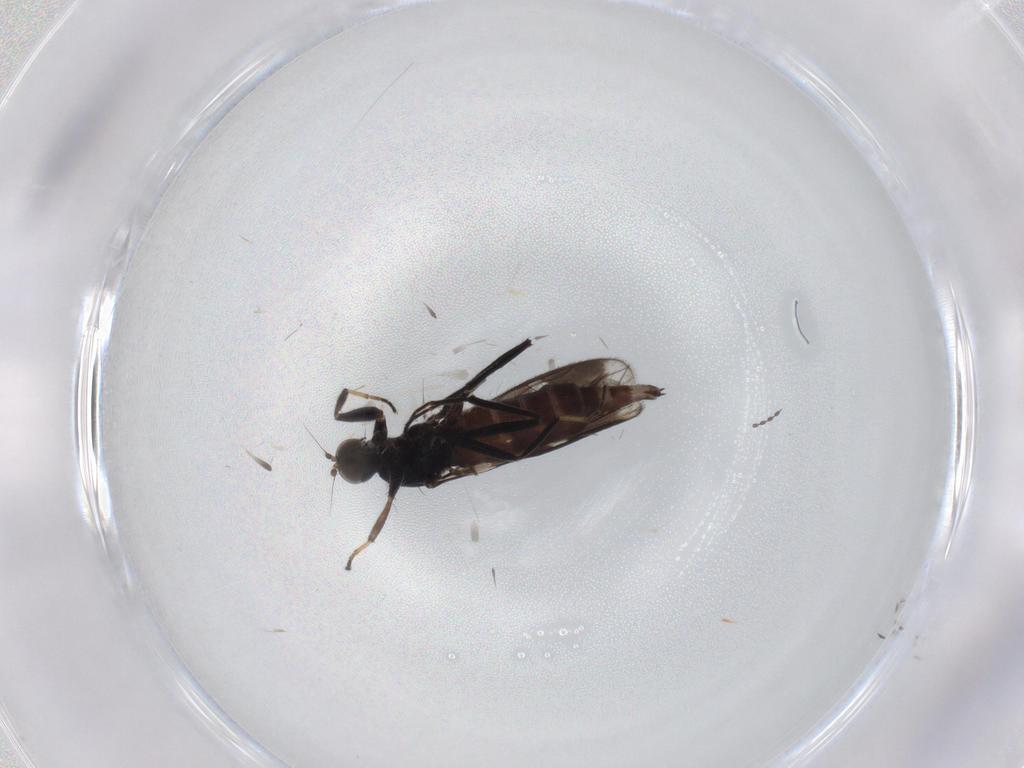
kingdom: Animalia
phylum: Arthropoda
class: Insecta
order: Diptera
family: Hybotidae
